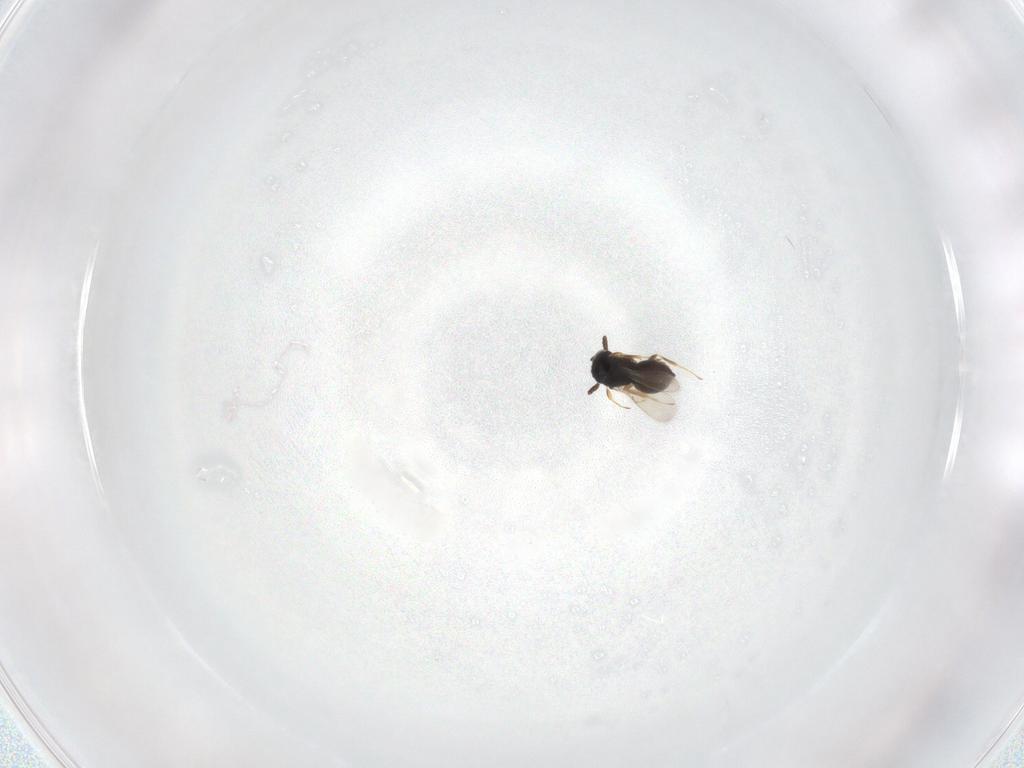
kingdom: Animalia
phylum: Arthropoda
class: Insecta
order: Hymenoptera
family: Scelionidae
